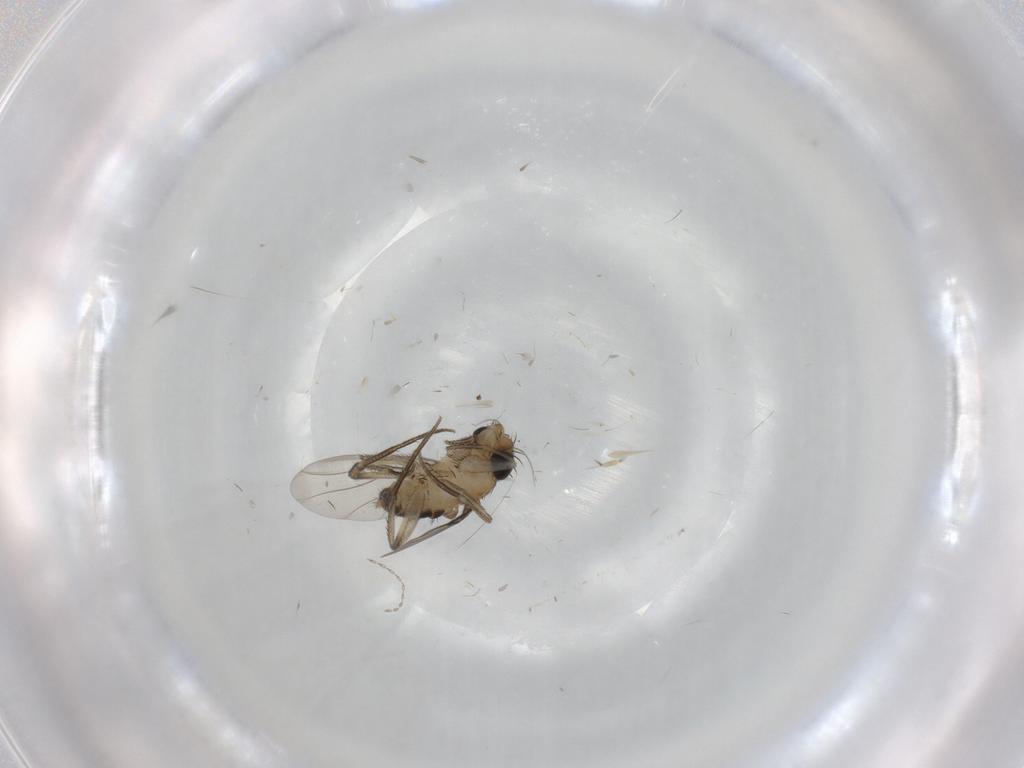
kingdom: Animalia
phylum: Arthropoda
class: Insecta
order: Diptera
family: Phoridae
